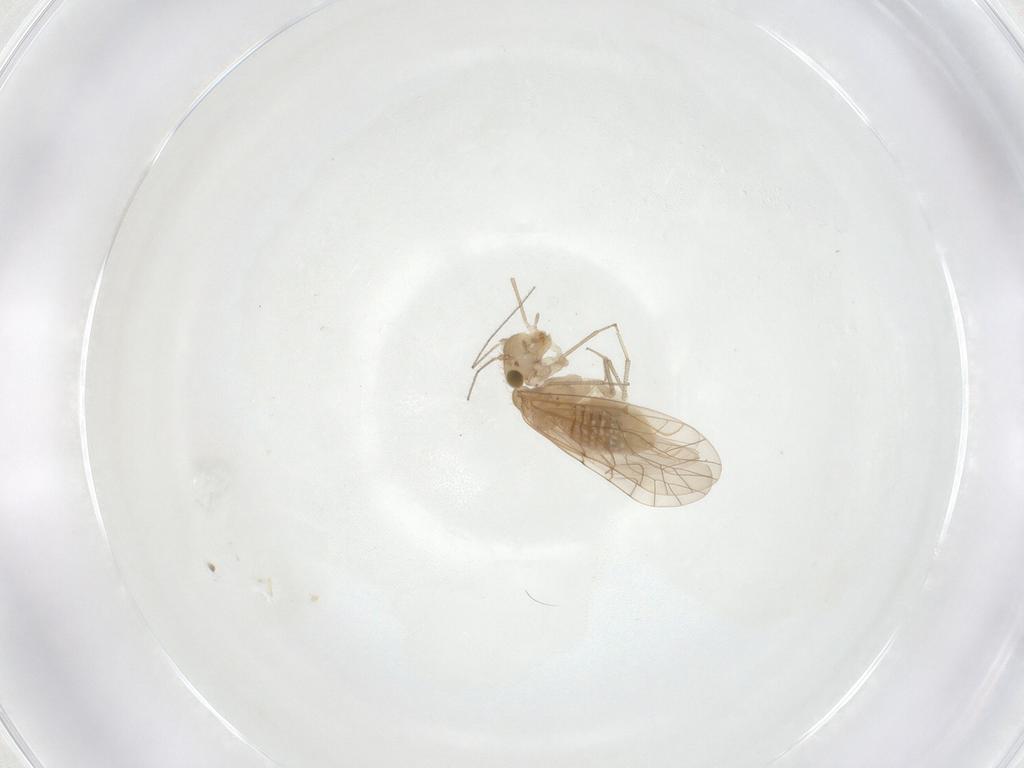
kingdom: Animalia
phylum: Arthropoda
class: Insecta
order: Psocodea
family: Lachesillidae
